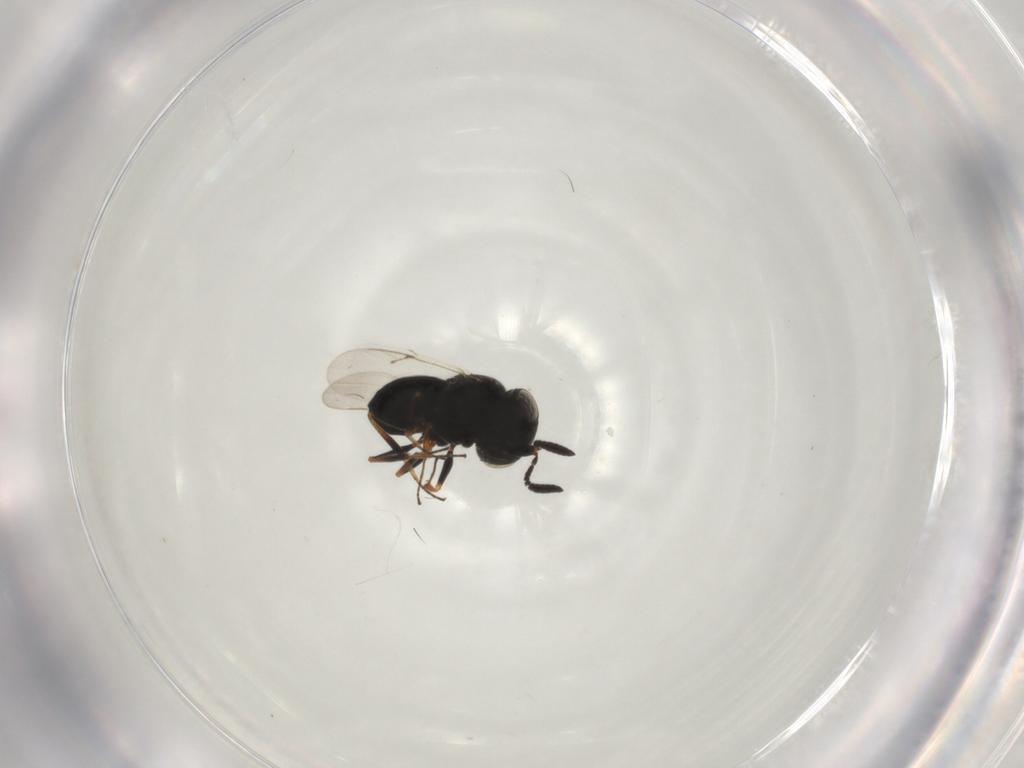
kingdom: Animalia
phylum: Arthropoda
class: Insecta
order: Hymenoptera
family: Scelionidae
